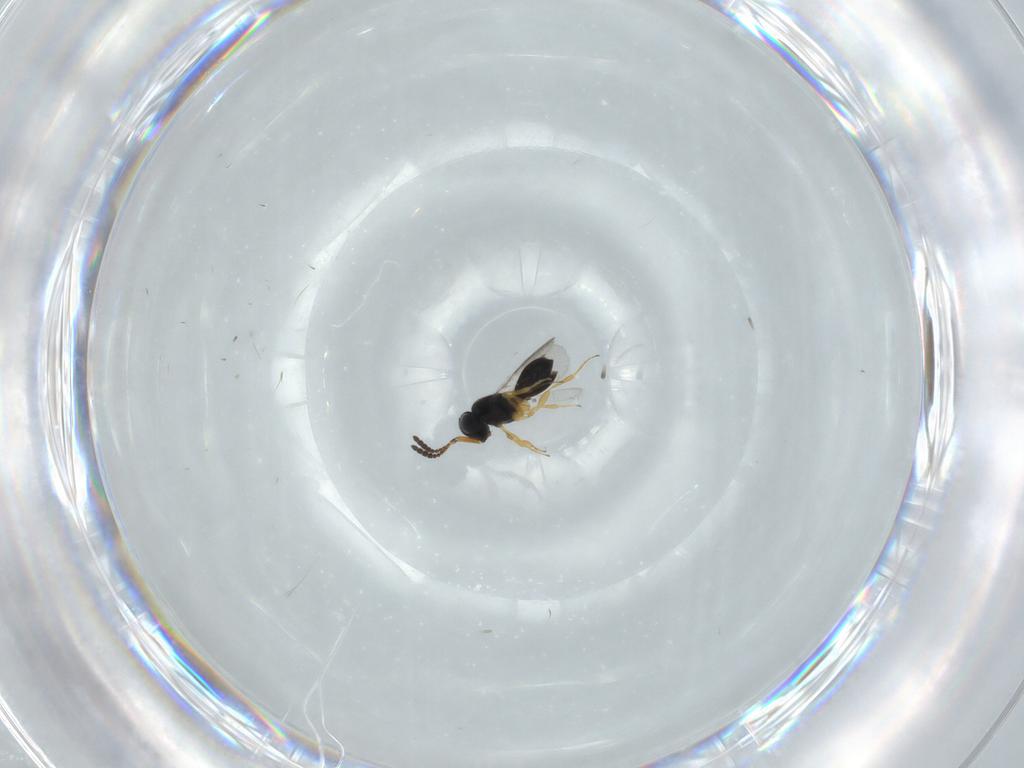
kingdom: Animalia
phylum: Arthropoda
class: Insecta
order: Hymenoptera
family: Scelionidae
